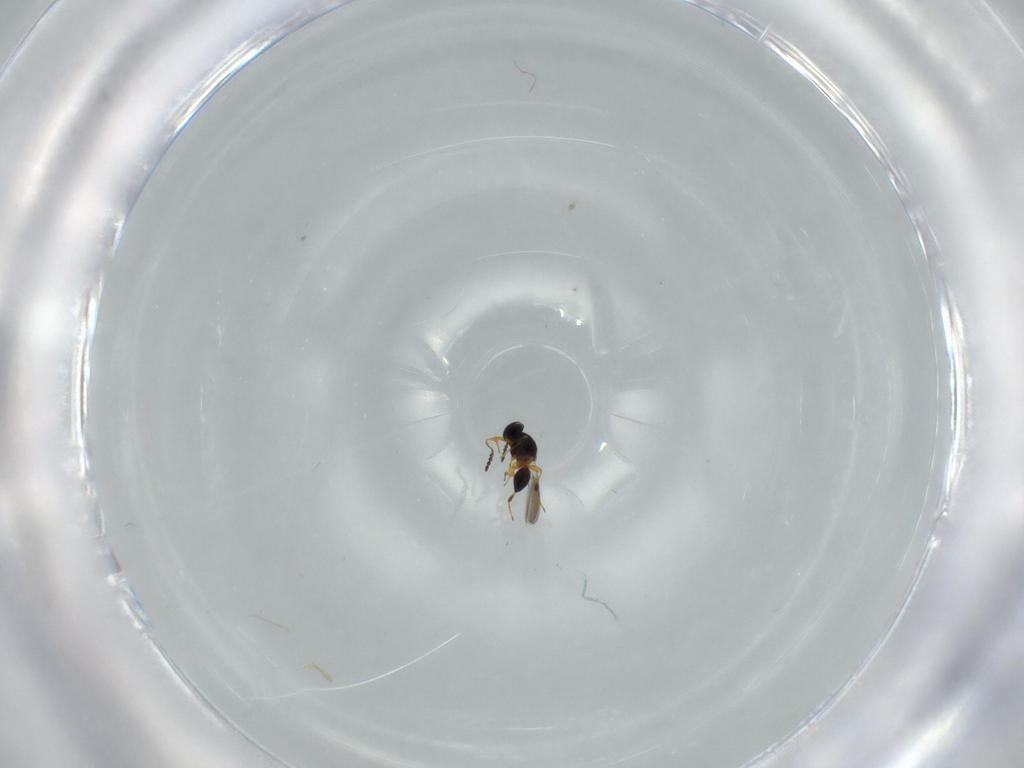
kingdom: Animalia
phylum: Arthropoda
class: Insecta
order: Hymenoptera
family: Platygastridae
